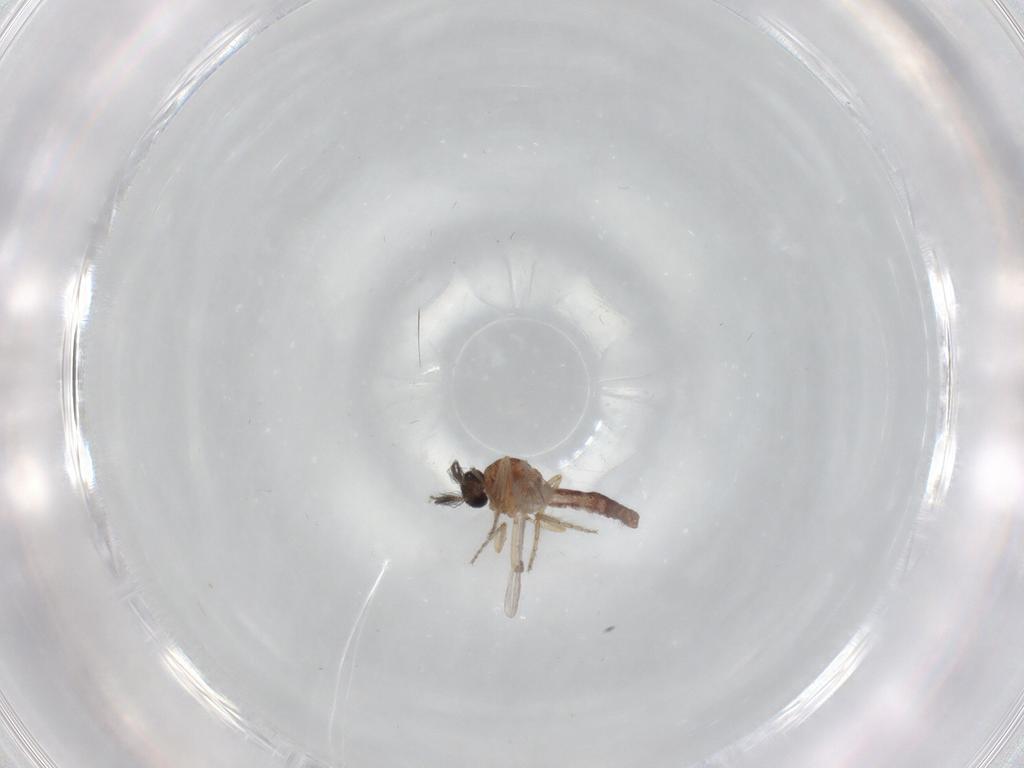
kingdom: Animalia
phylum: Arthropoda
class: Insecta
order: Diptera
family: Ceratopogonidae
